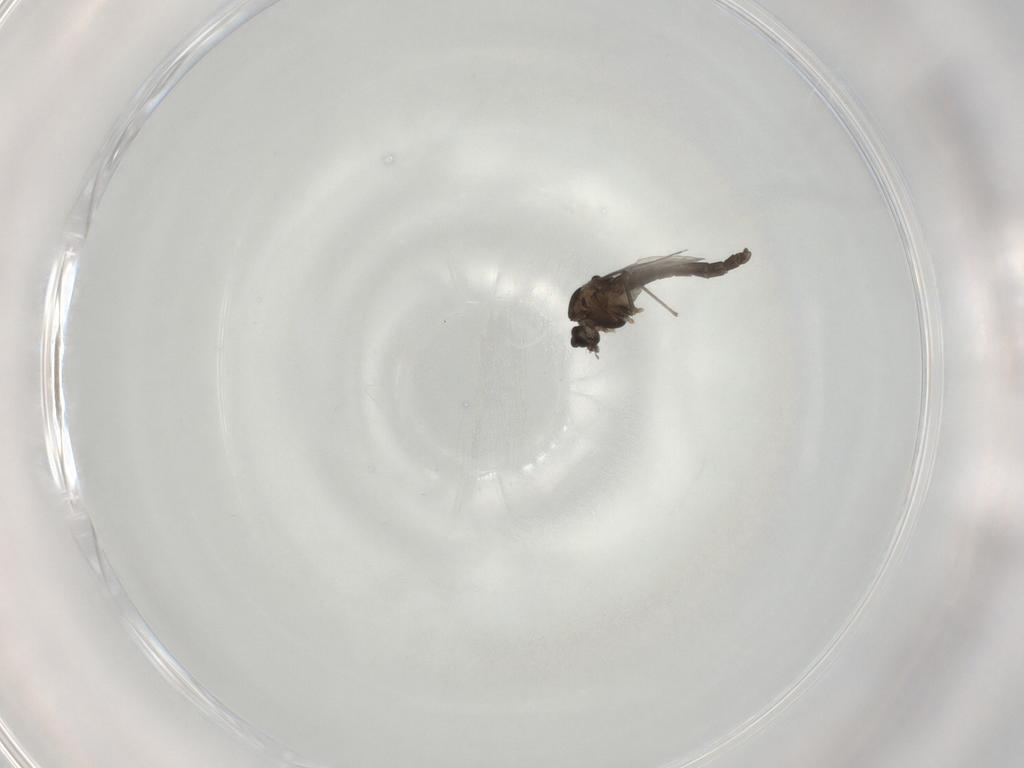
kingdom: Animalia
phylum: Arthropoda
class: Insecta
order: Diptera
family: Chironomidae
